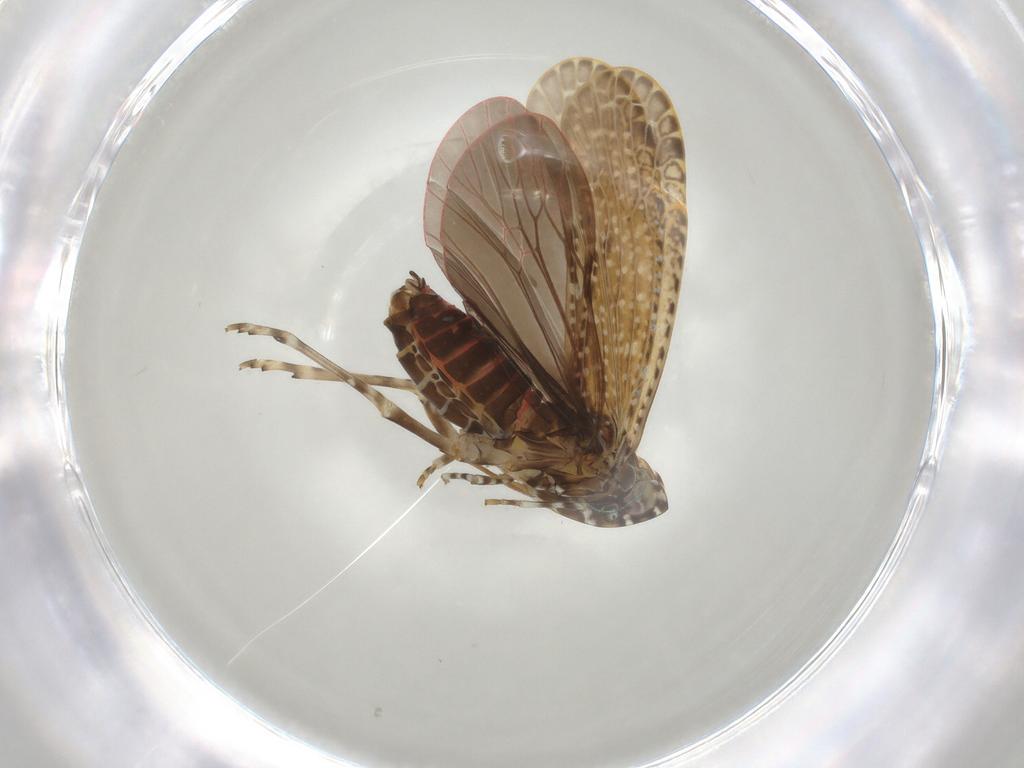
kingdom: Animalia
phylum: Arthropoda
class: Insecta
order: Hemiptera
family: Achilidae
